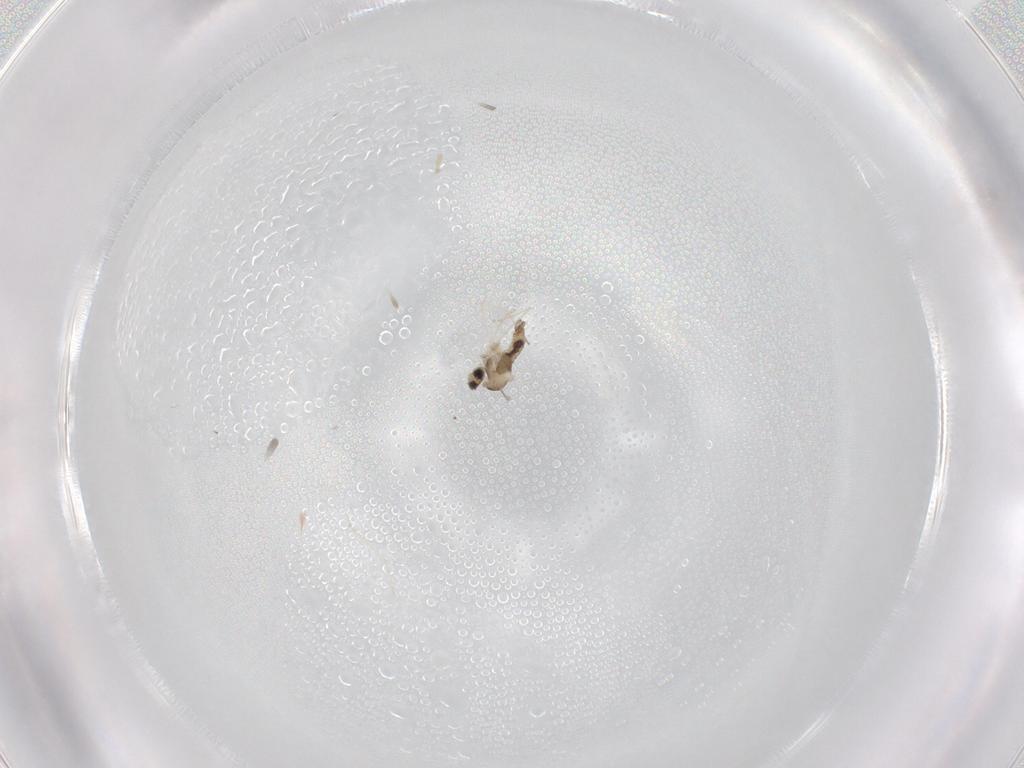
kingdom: Animalia
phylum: Arthropoda
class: Insecta
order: Diptera
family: Cecidomyiidae
